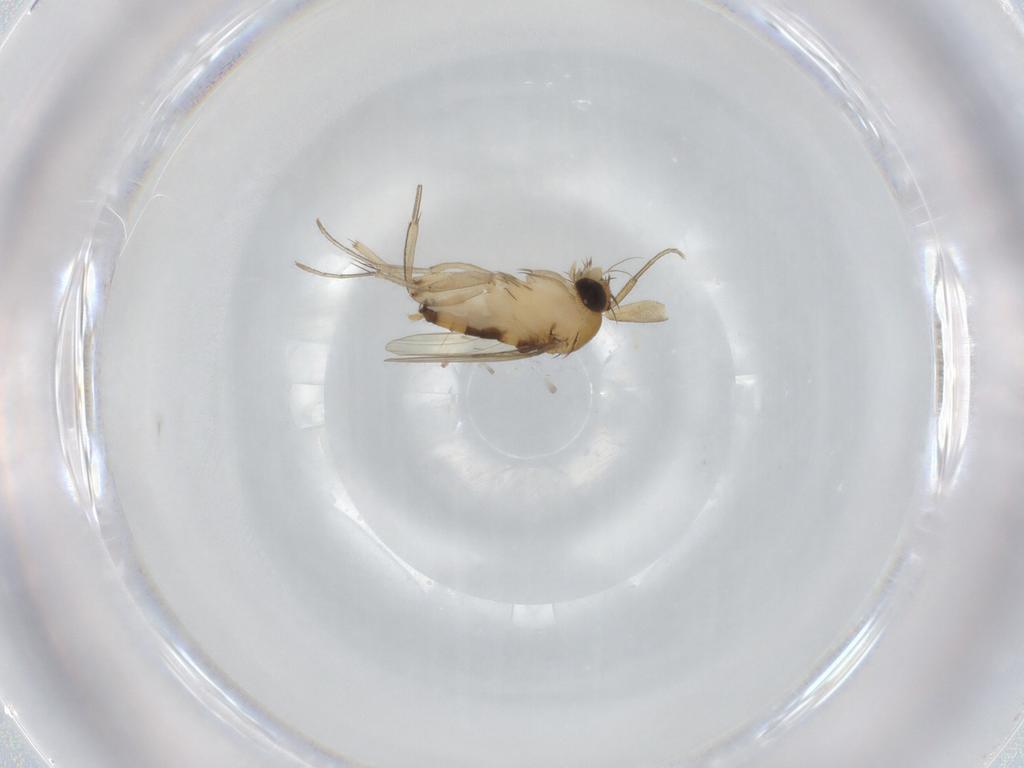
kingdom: Animalia
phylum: Arthropoda
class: Insecta
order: Diptera
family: Phoridae
